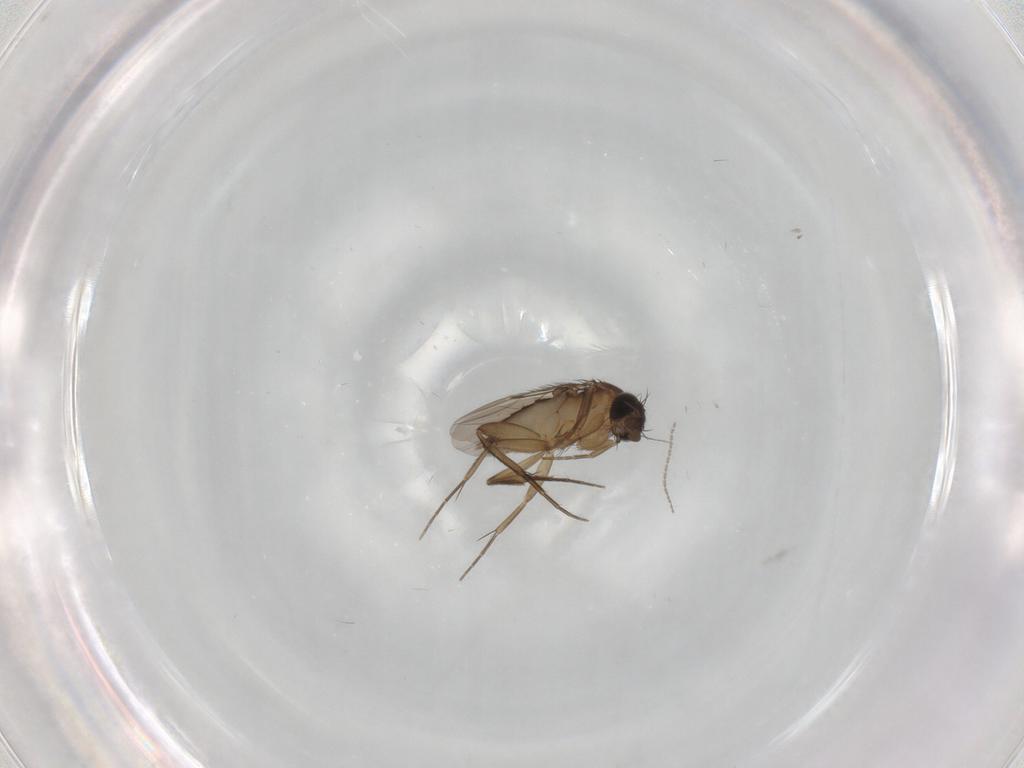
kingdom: Animalia
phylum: Arthropoda
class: Insecta
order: Diptera
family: Phoridae
